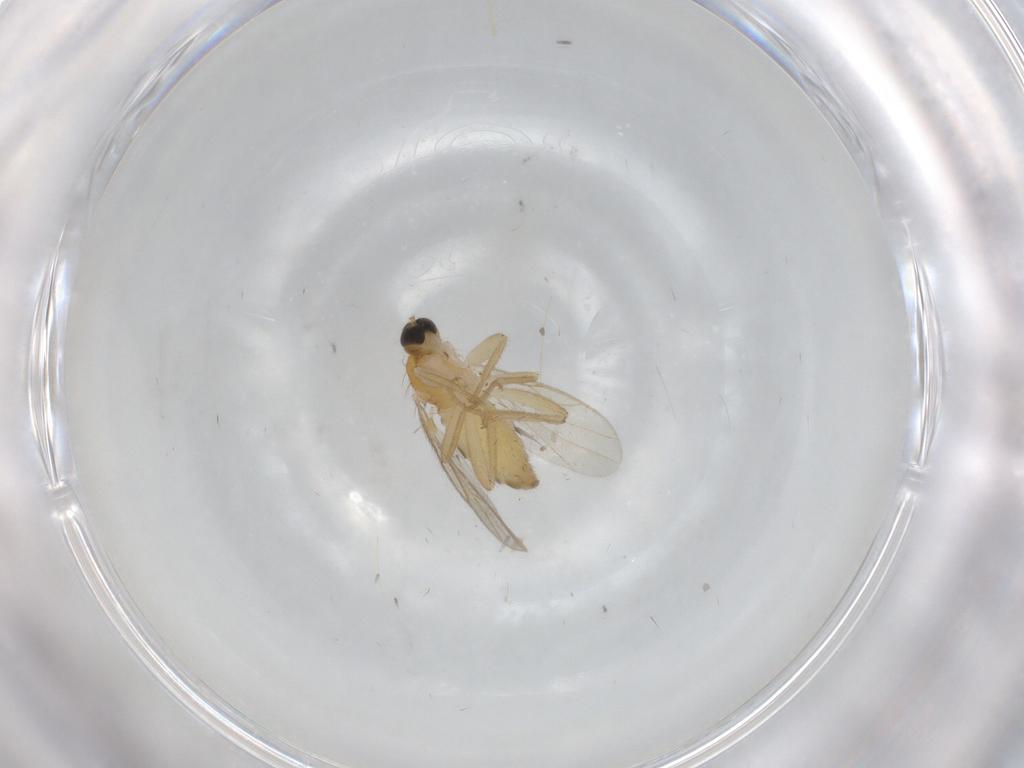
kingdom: Animalia
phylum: Arthropoda
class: Insecta
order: Diptera
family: Hybotidae
